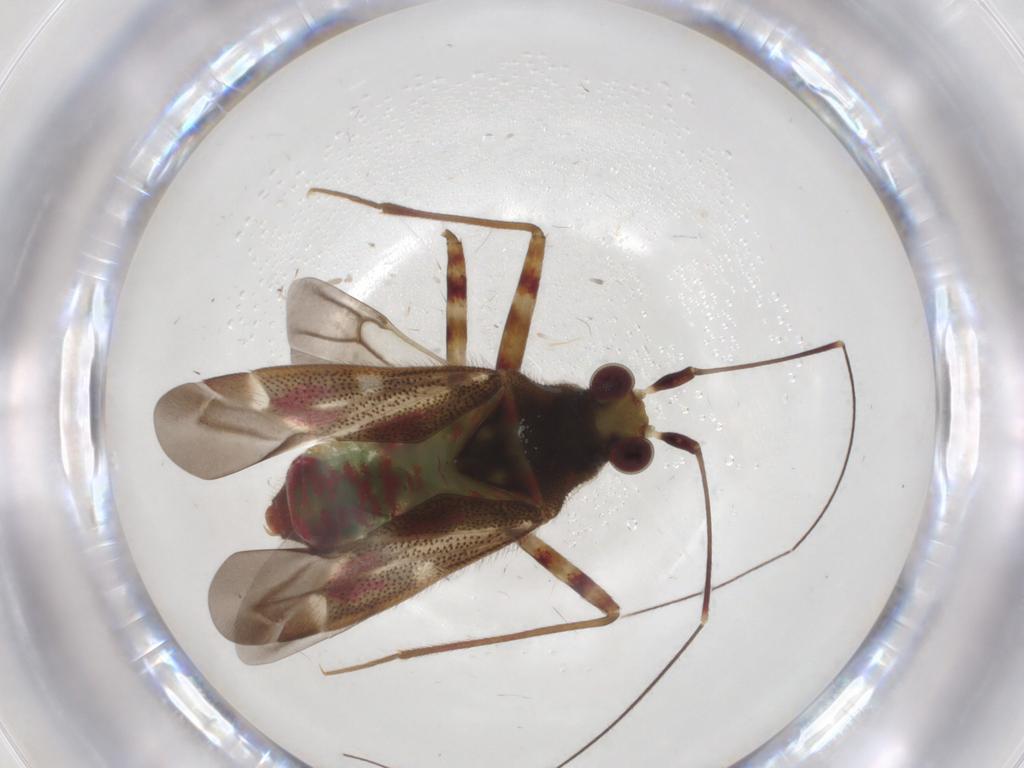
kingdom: Animalia
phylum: Arthropoda
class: Insecta
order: Hemiptera
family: Miridae
